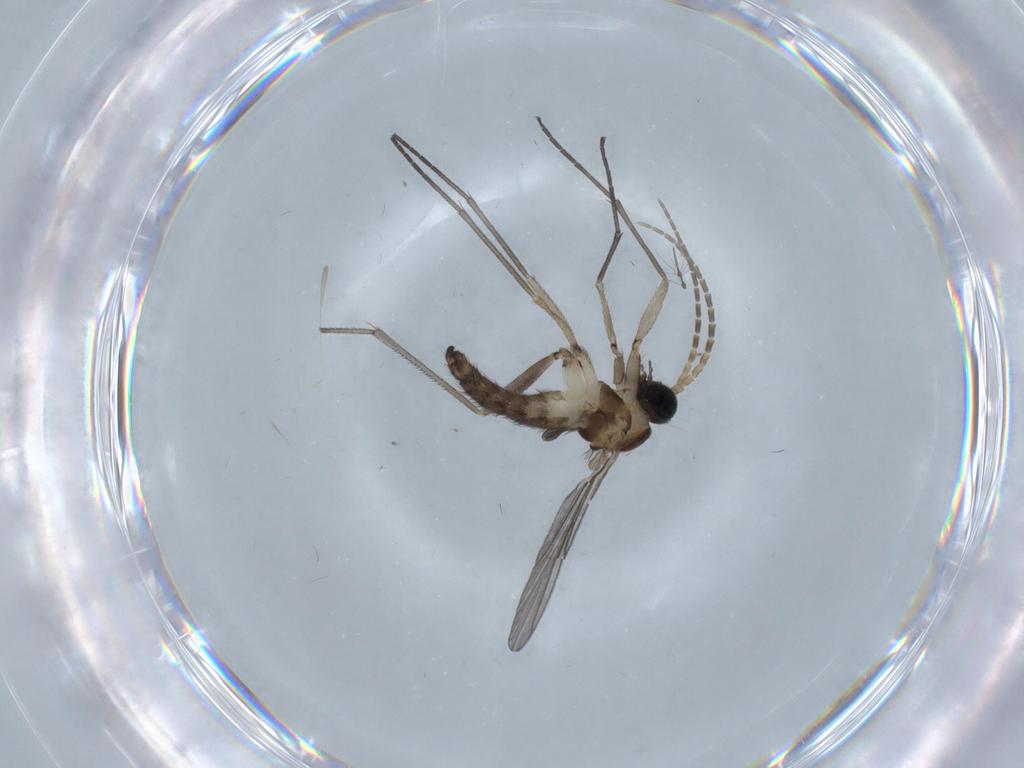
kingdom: Animalia
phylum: Arthropoda
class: Insecta
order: Diptera
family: Sciaridae
